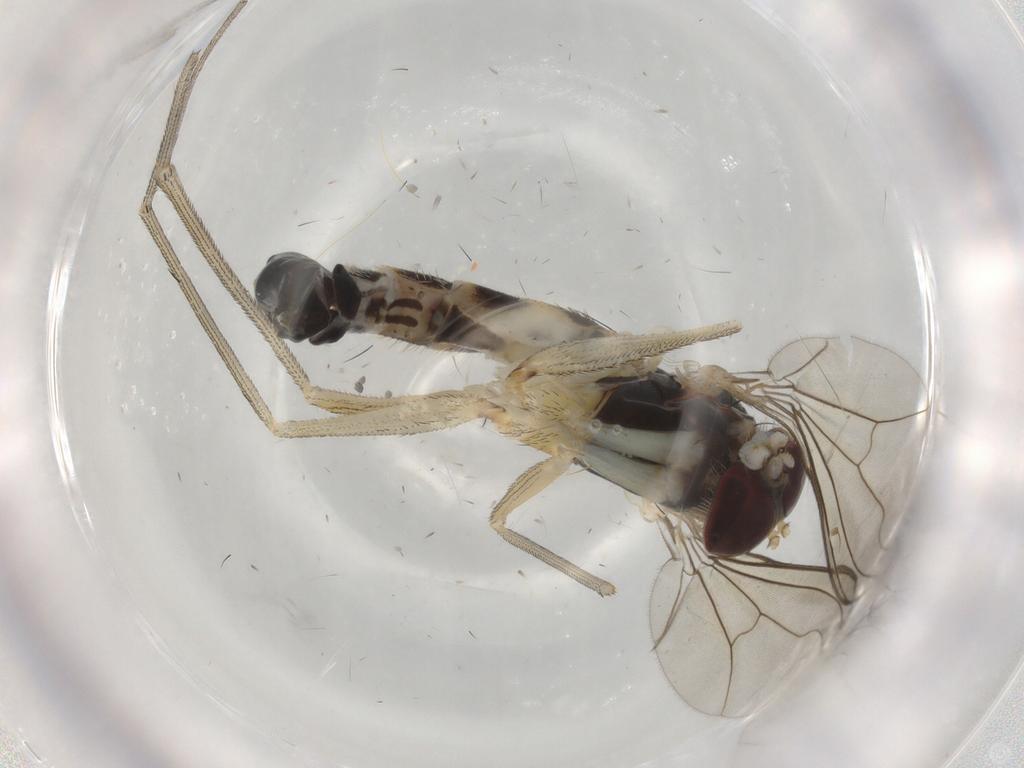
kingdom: Animalia
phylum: Arthropoda
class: Insecta
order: Diptera
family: Dolichopodidae
